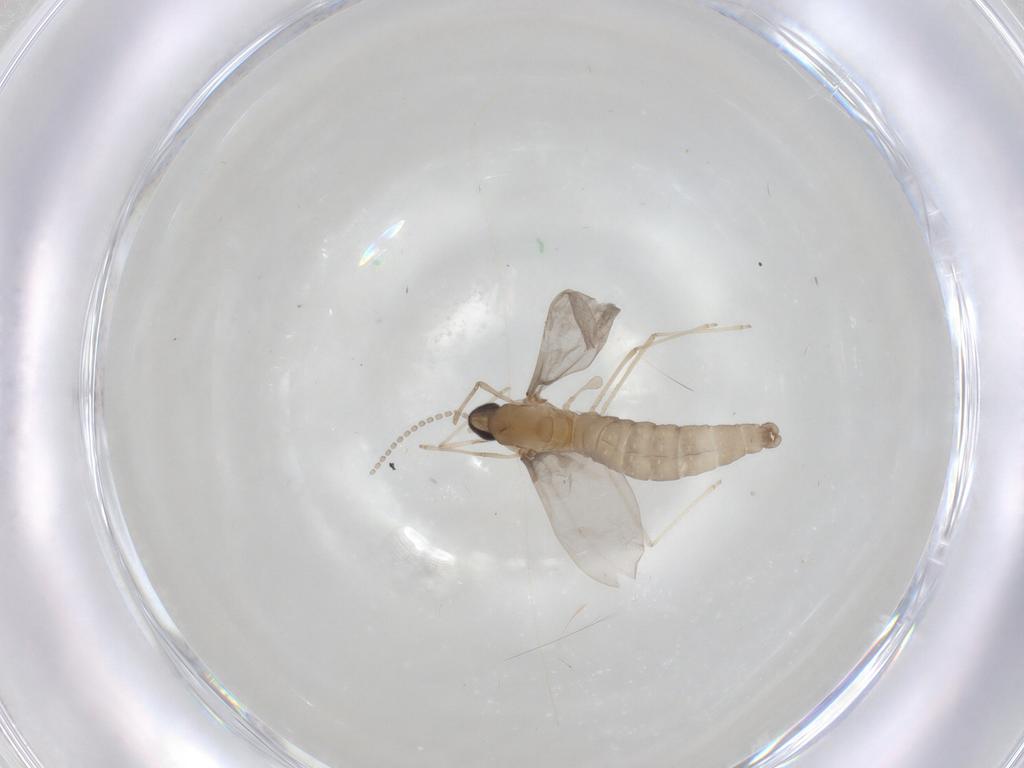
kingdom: Animalia
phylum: Arthropoda
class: Insecta
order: Diptera
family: Cecidomyiidae
